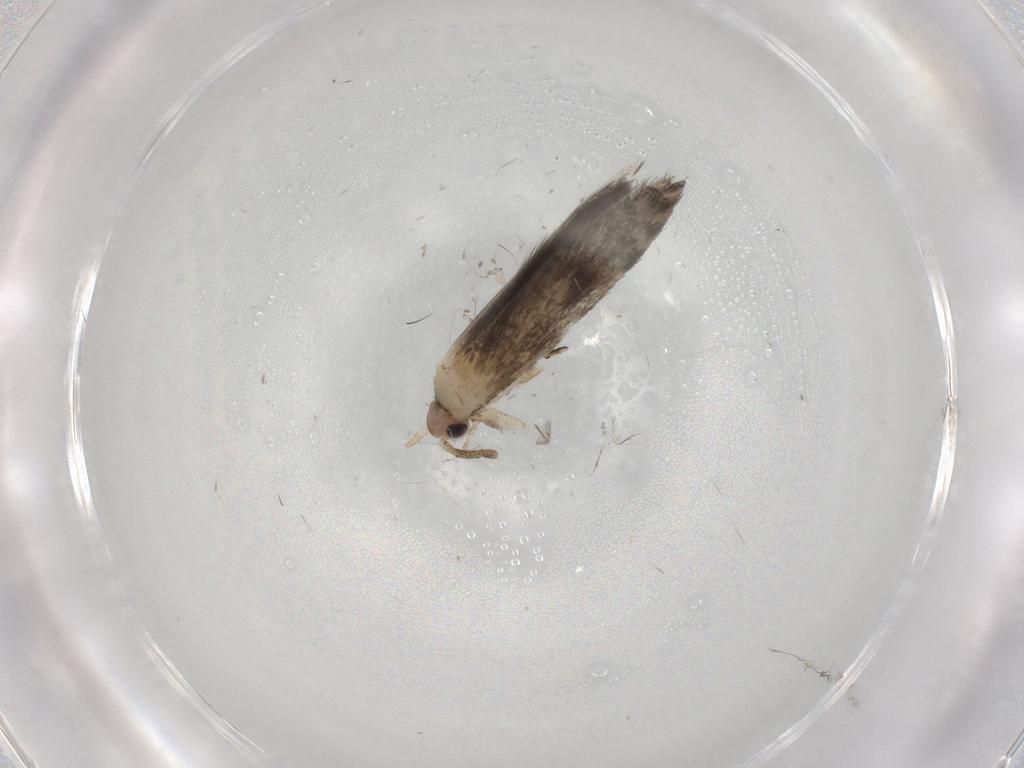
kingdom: Animalia
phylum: Arthropoda
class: Insecta
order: Lepidoptera
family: Tineidae
